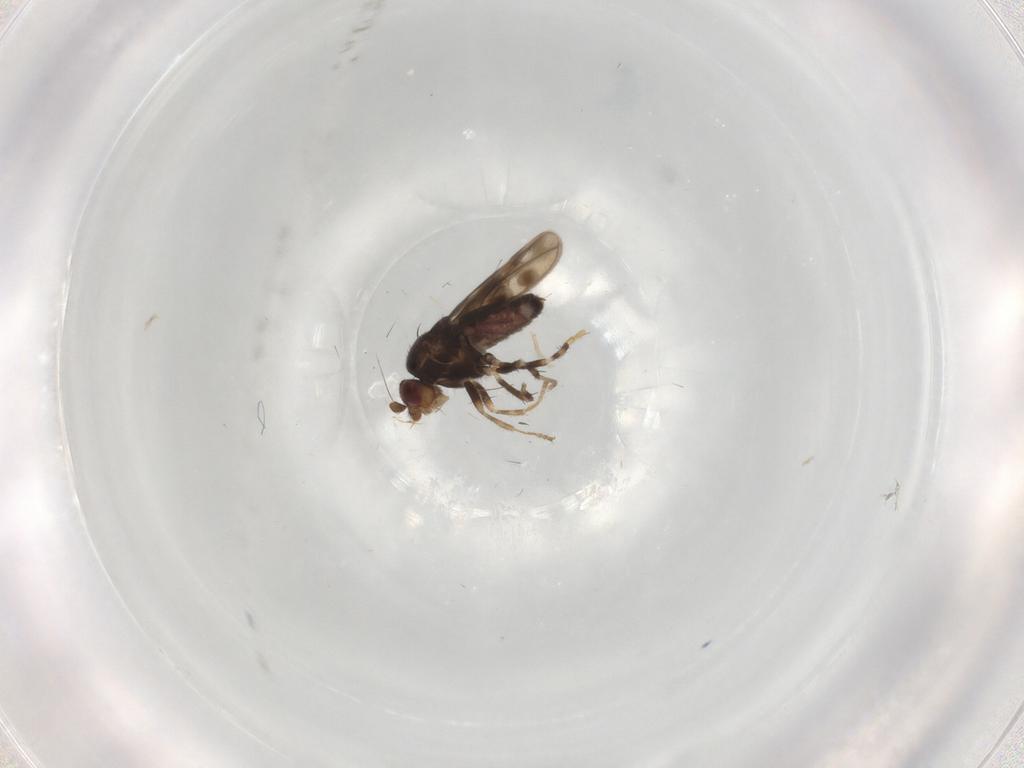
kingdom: Animalia
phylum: Arthropoda
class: Insecta
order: Diptera
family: Sphaeroceridae
